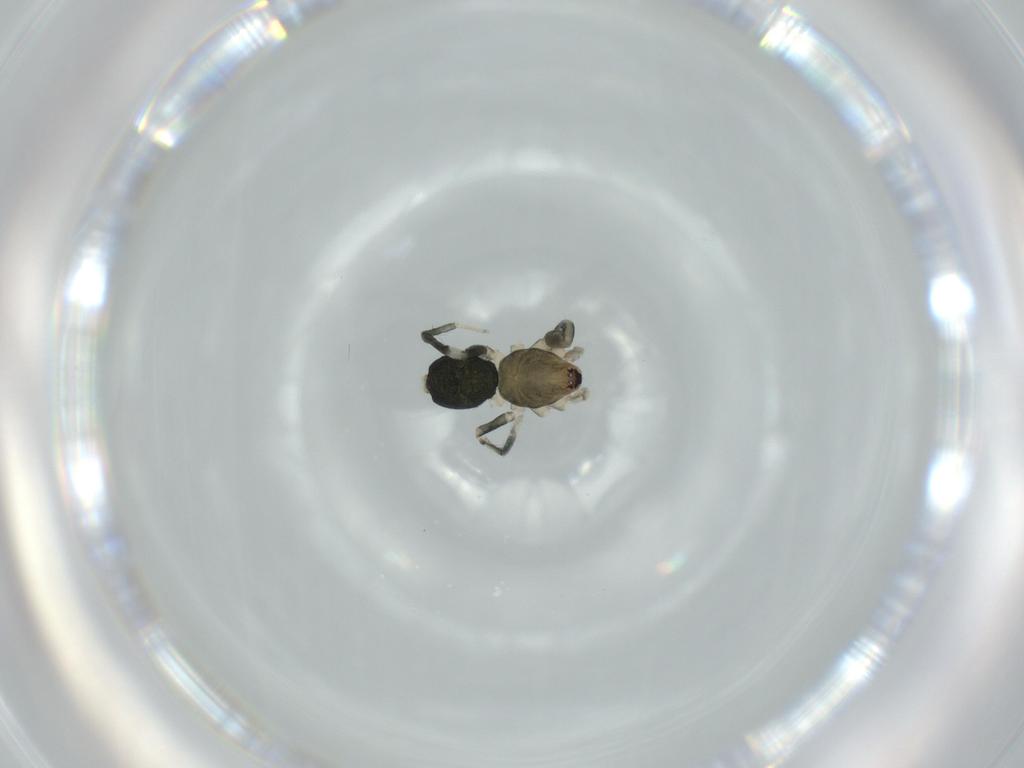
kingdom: Animalia
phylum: Arthropoda
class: Arachnida
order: Araneae
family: Gnaphosidae
